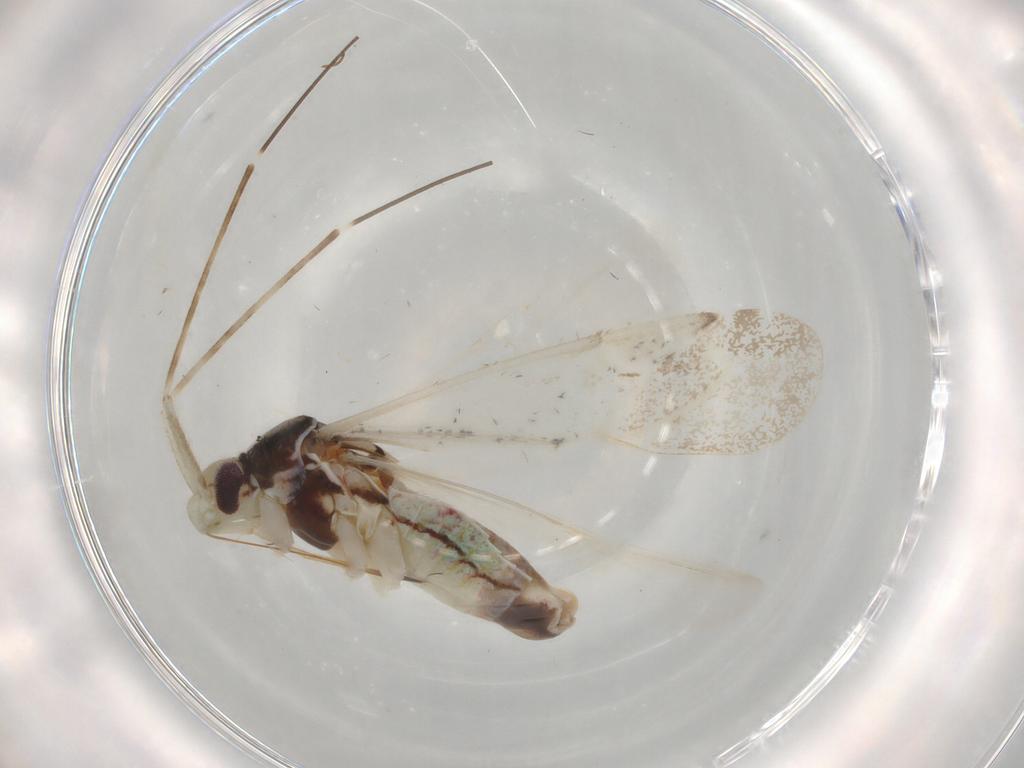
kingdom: Animalia
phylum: Arthropoda
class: Insecta
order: Hemiptera
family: Miridae
